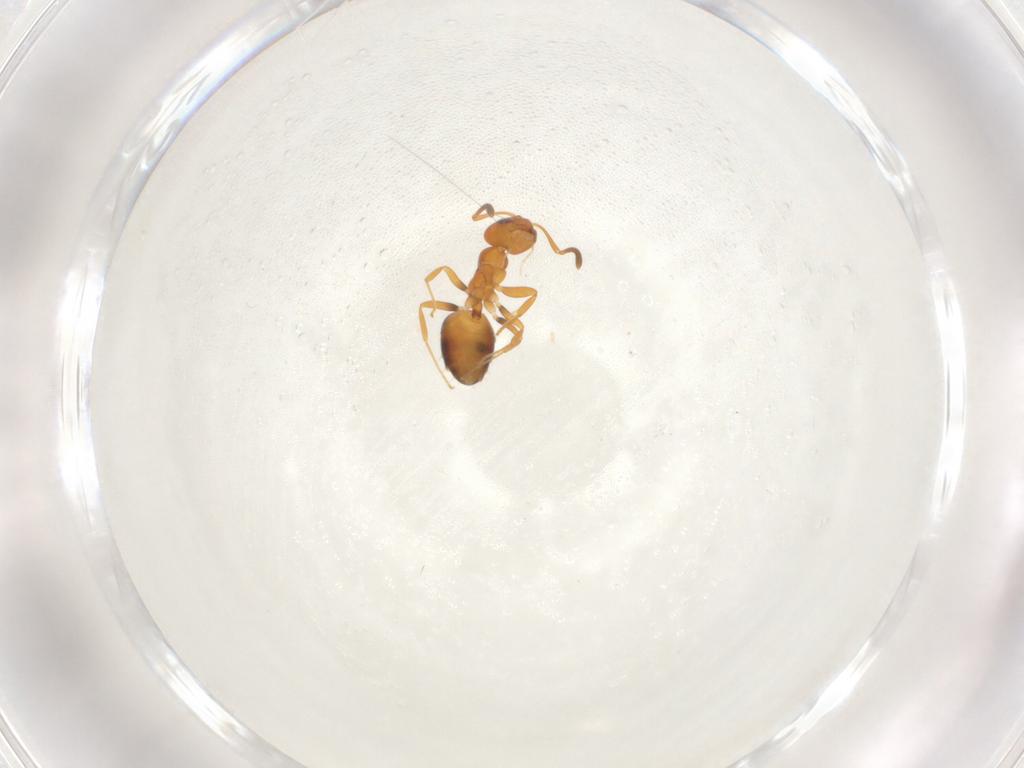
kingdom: Animalia
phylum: Arthropoda
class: Insecta
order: Hymenoptera
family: Formicidae
